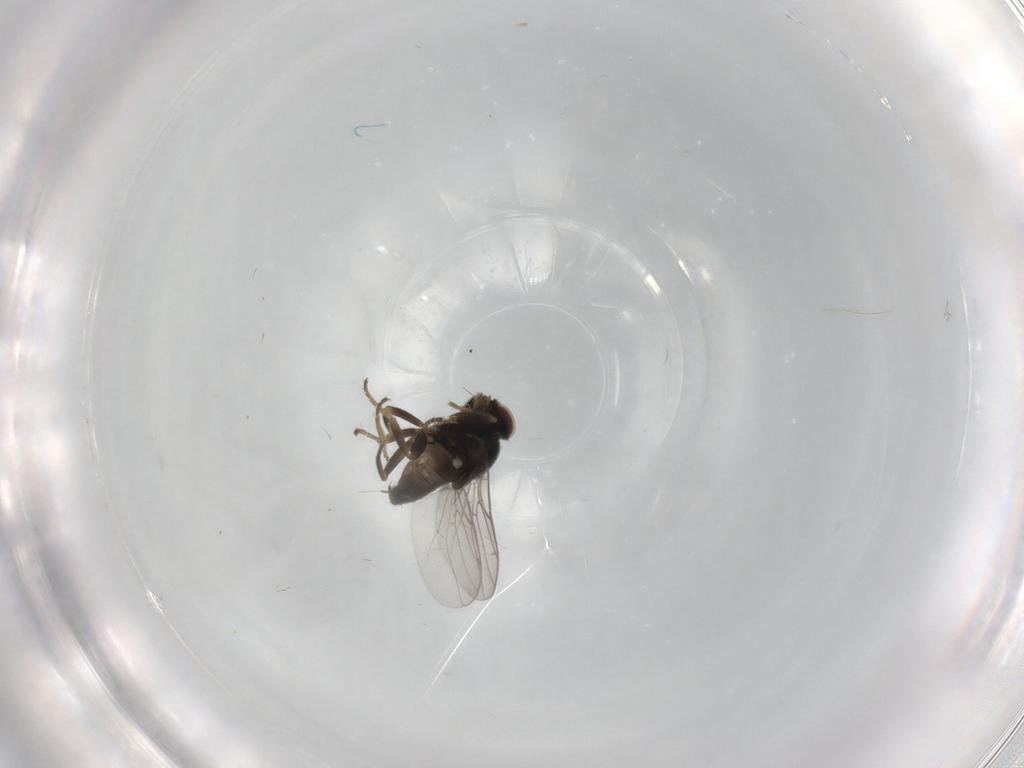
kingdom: Animalia
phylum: Arthropoda
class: Insecta
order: Diptera
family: Chloropidae
